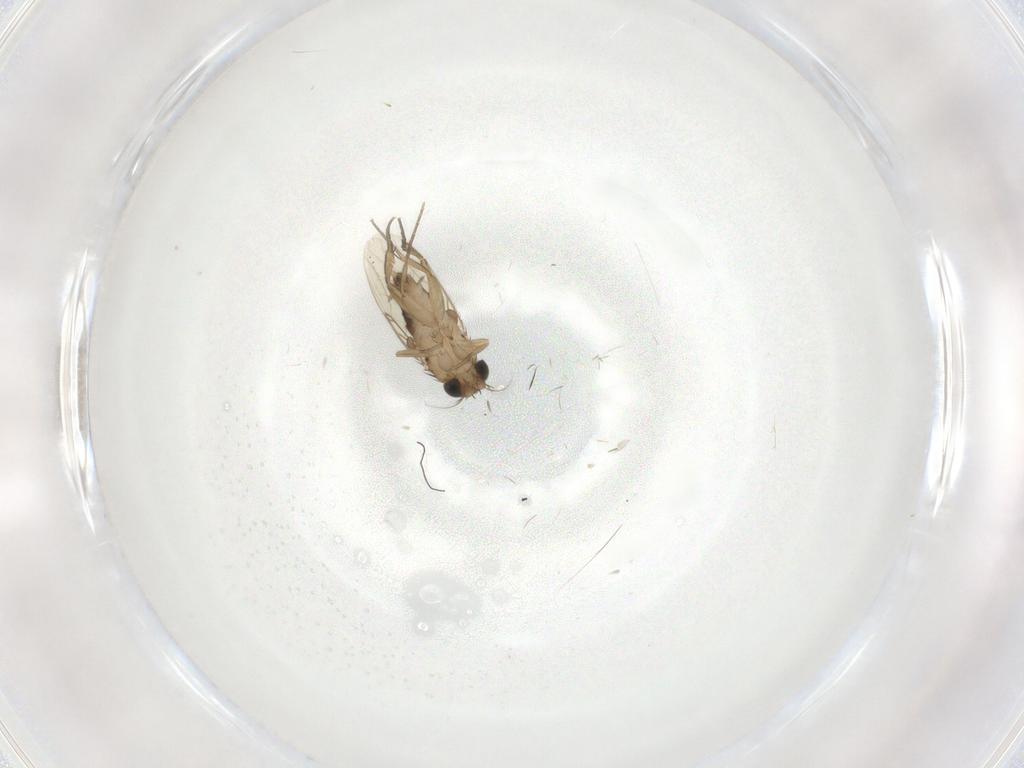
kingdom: Animalia
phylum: Arthropoda
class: Insecta
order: Diptera
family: Phoridae
